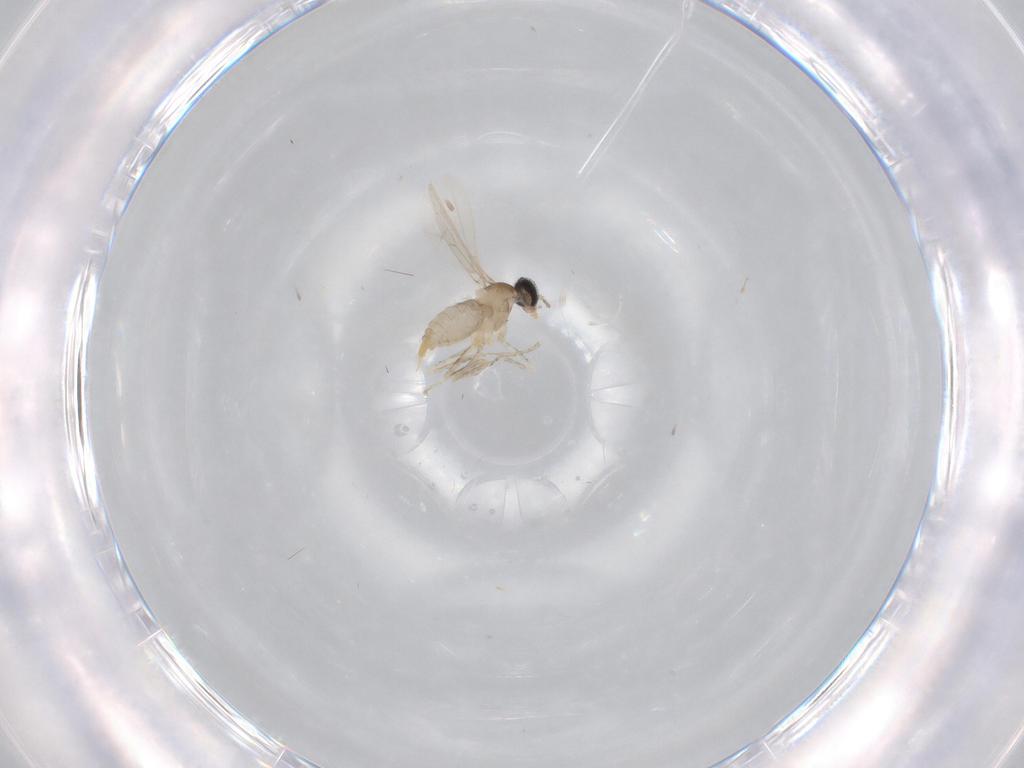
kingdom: Animalia
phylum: Arthropoda
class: Insecta
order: Diptera
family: Cecidomyiidae
